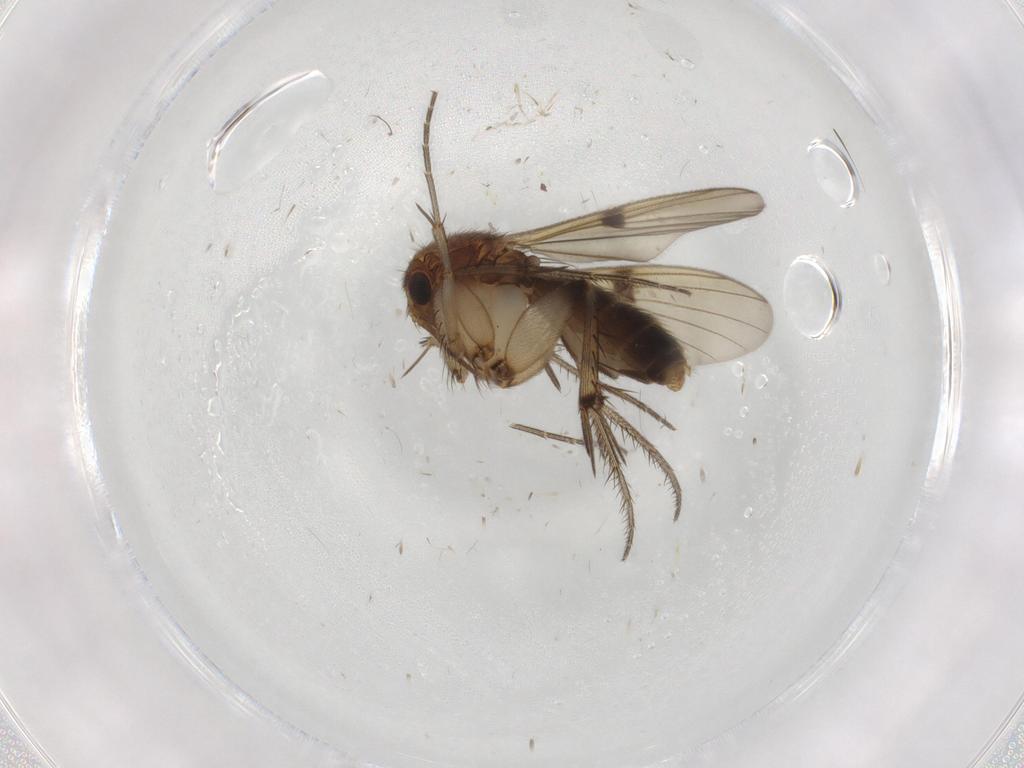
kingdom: Animalia
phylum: Arthropoda
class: Insecta
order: Diptera
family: Mycetophilidae
